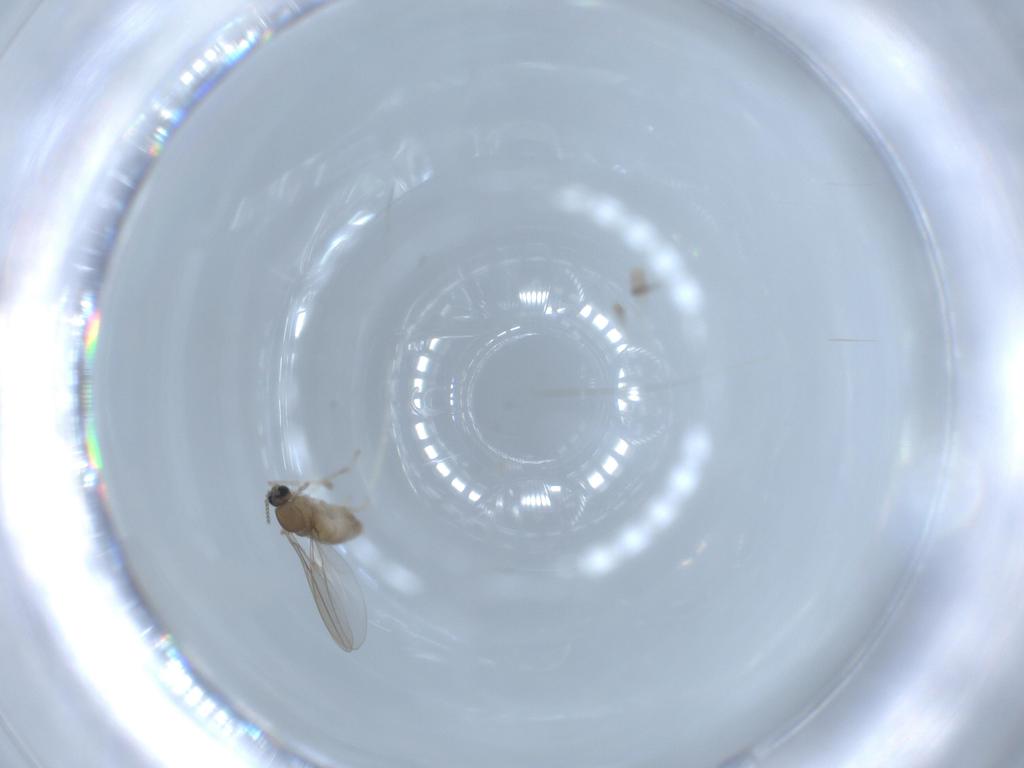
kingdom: Animalia
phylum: Arthropoda
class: Insecta
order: Diptera
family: Cecidomyiidae
